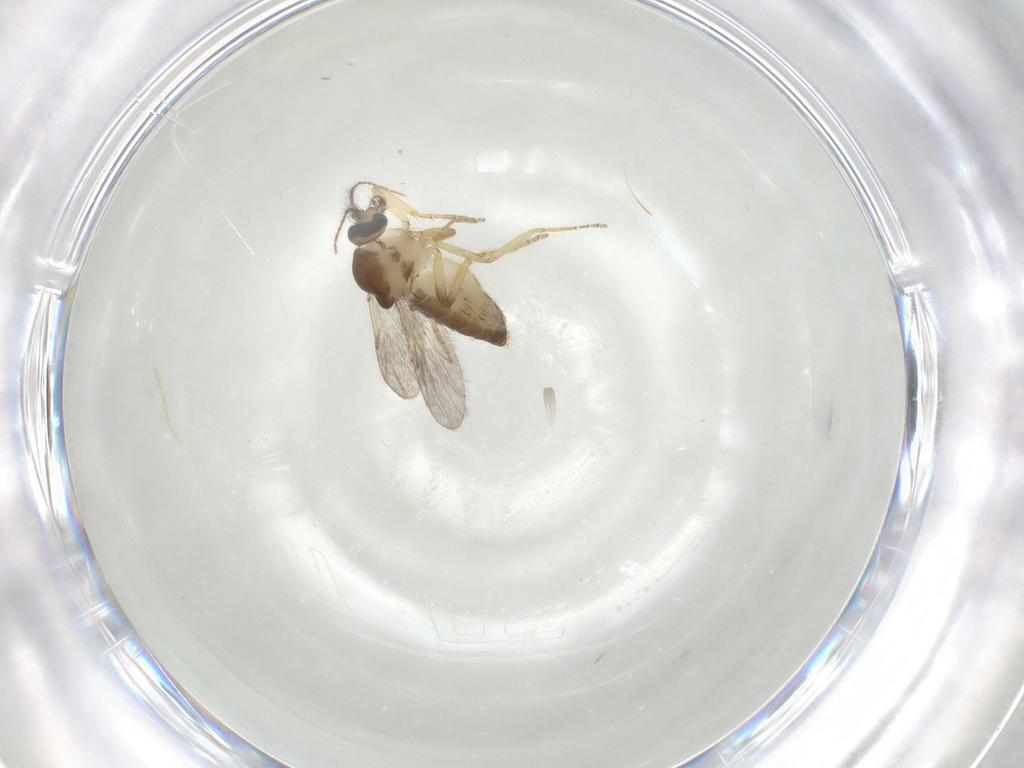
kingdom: Animalia
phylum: Arthropoda
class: Insecta
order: Diptera
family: Ceratopogonidae
